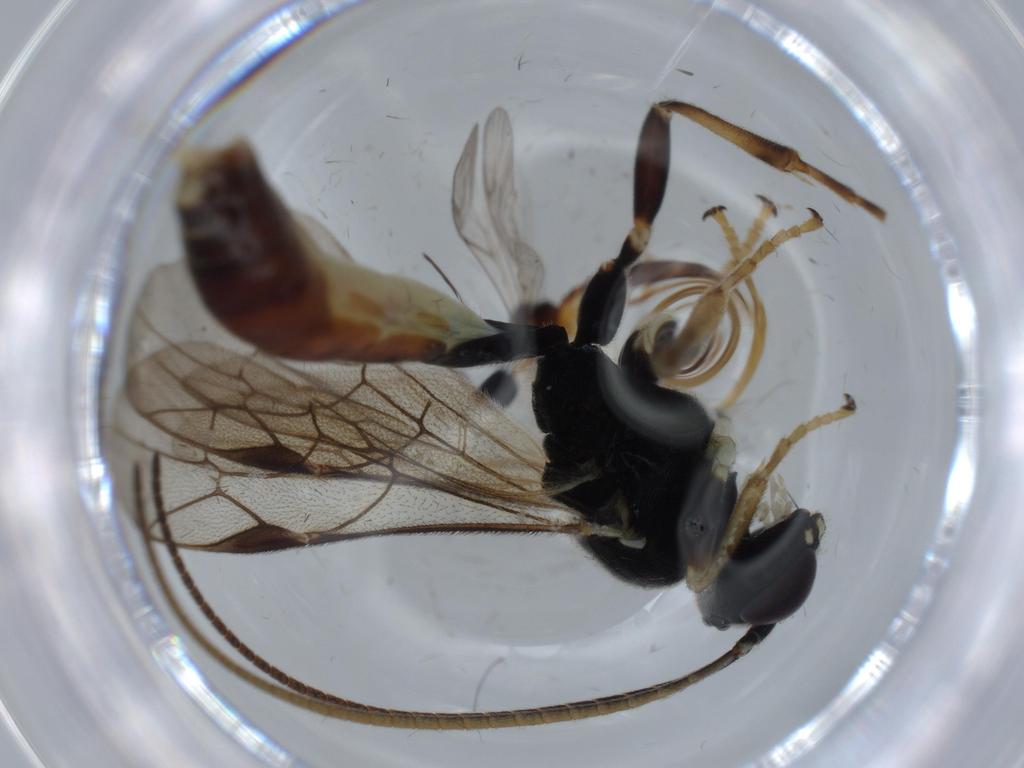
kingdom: Animalia
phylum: Arthropoda
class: Insecta
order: Hymenoptera
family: Ichneumonidae
